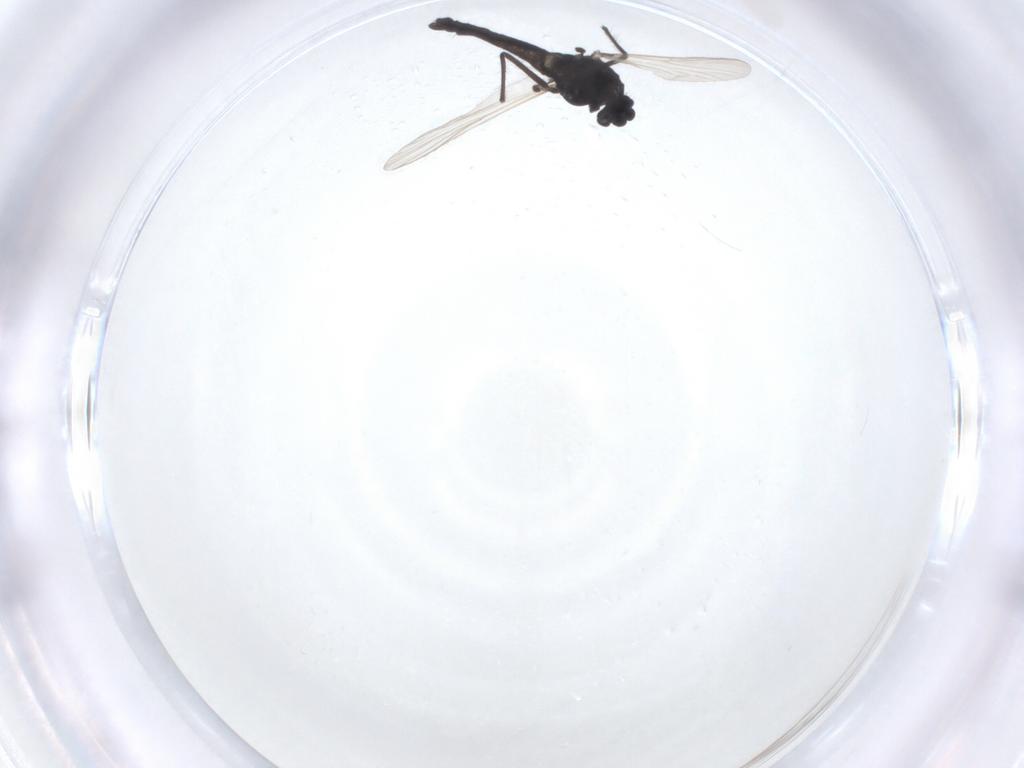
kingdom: Animalia
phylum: Arthropoda
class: Insecta
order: Diptera
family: Chironomidae
